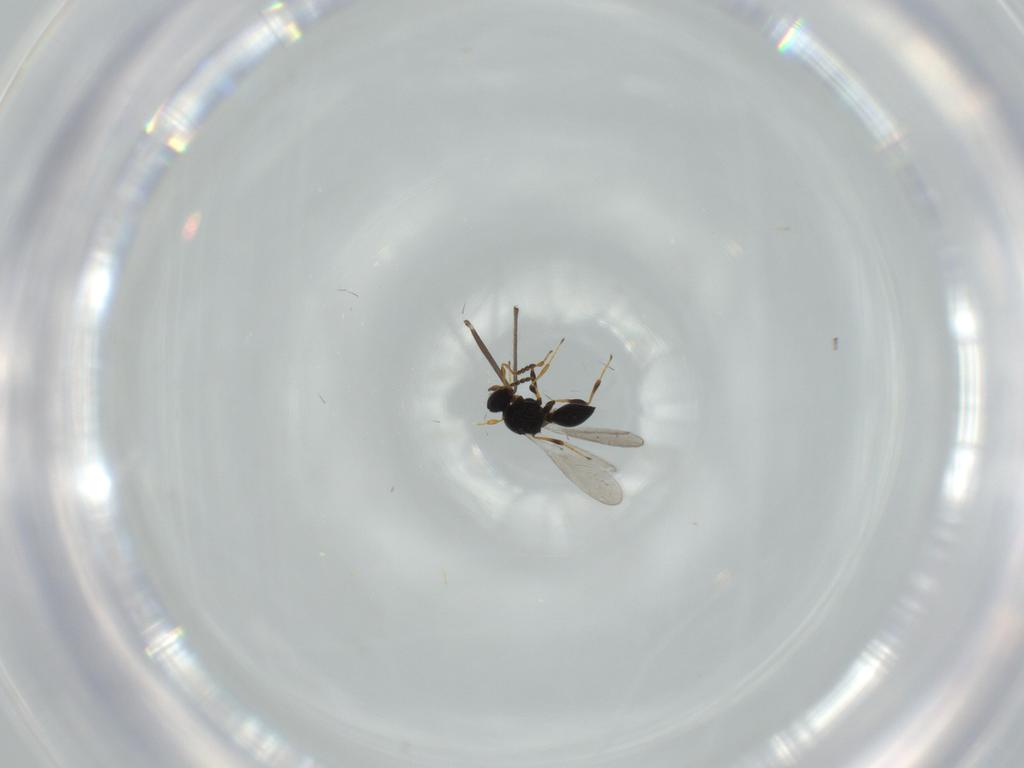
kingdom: Animalia
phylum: Arthropoda
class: Insecta
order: Hymenoptera
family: Platygastridae
